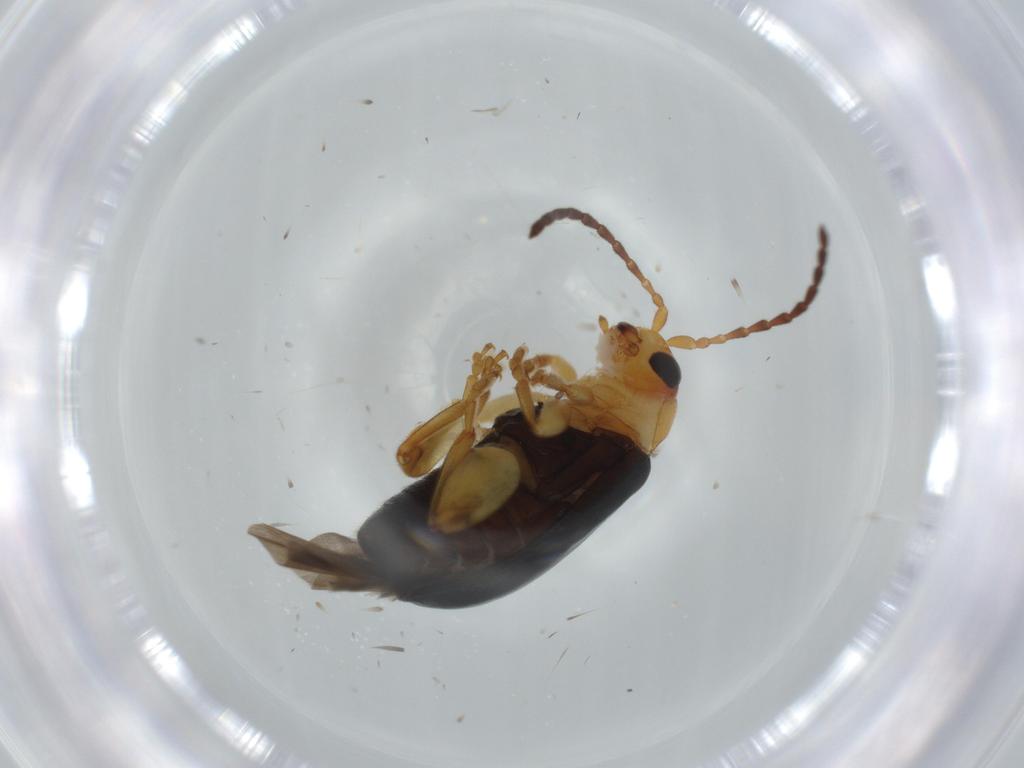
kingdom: Animalia
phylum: Arthropoda
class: Insecta
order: Coleoptera
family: Chrysomelidae
